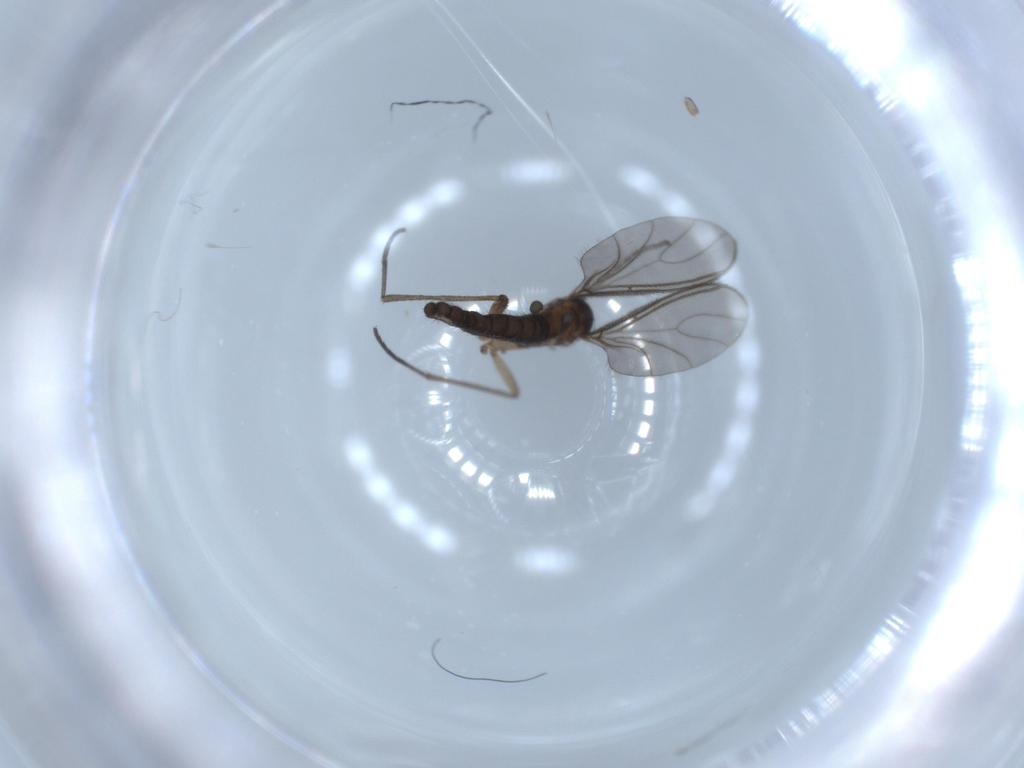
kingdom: Animalia
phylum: Arthropoda
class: Insecta
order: Diptera
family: Sciaridae
